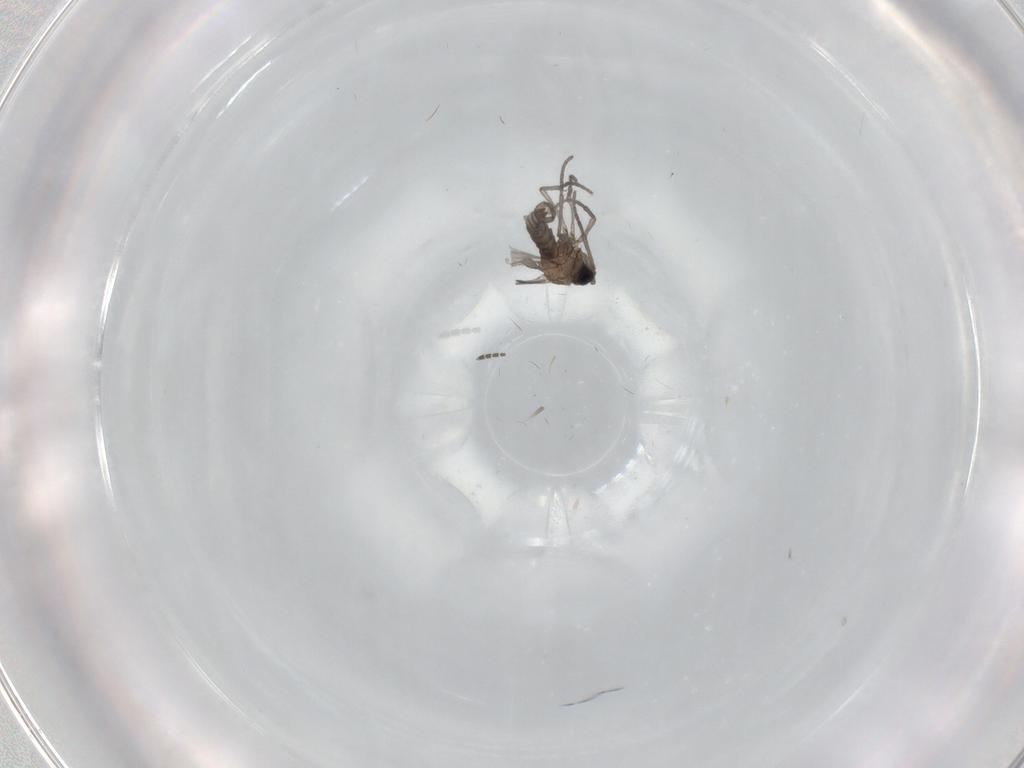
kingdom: Animalia
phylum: Arthropoda
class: Insecta
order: Diptera
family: Sciaridae
